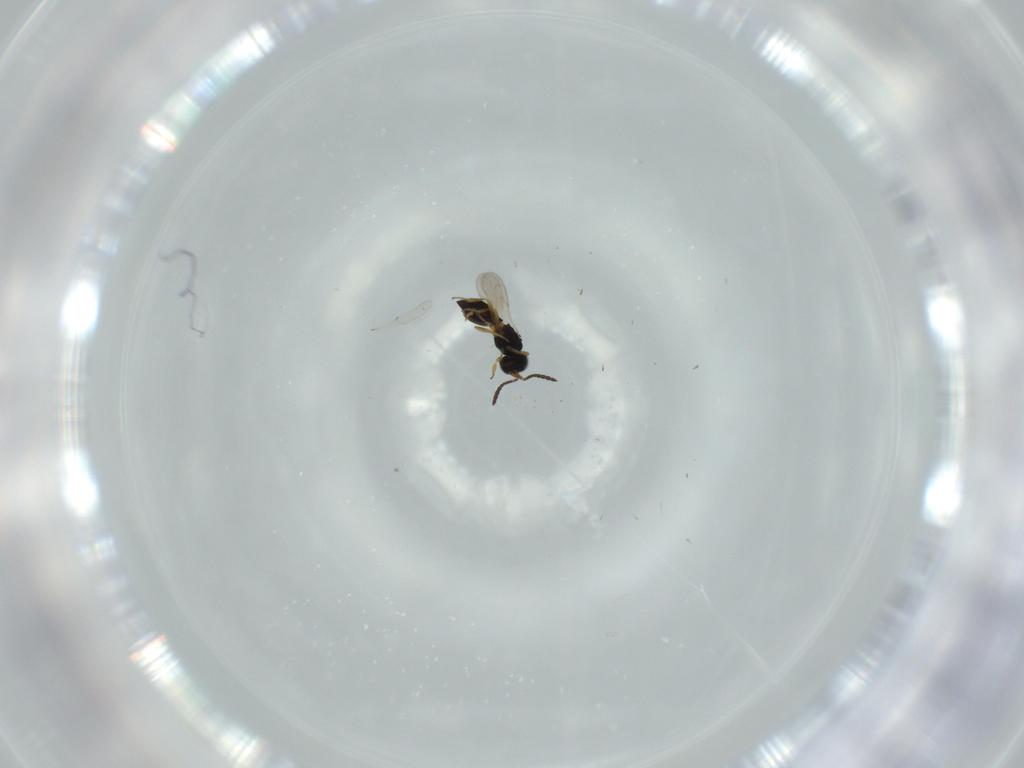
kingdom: Animalia
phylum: Arthropoda
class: Insecta
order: Hymenoptera
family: Scelionidae
